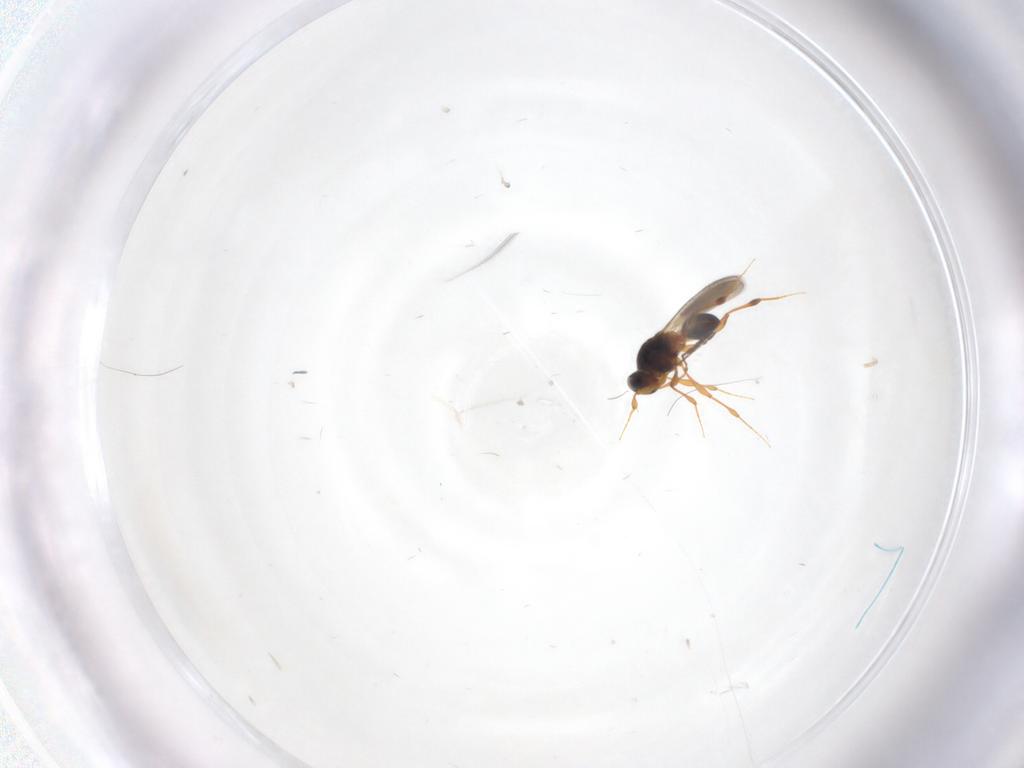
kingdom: Animalia
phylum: Arthropoda
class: Insecta
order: Hymenoptera
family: Platygastridae
